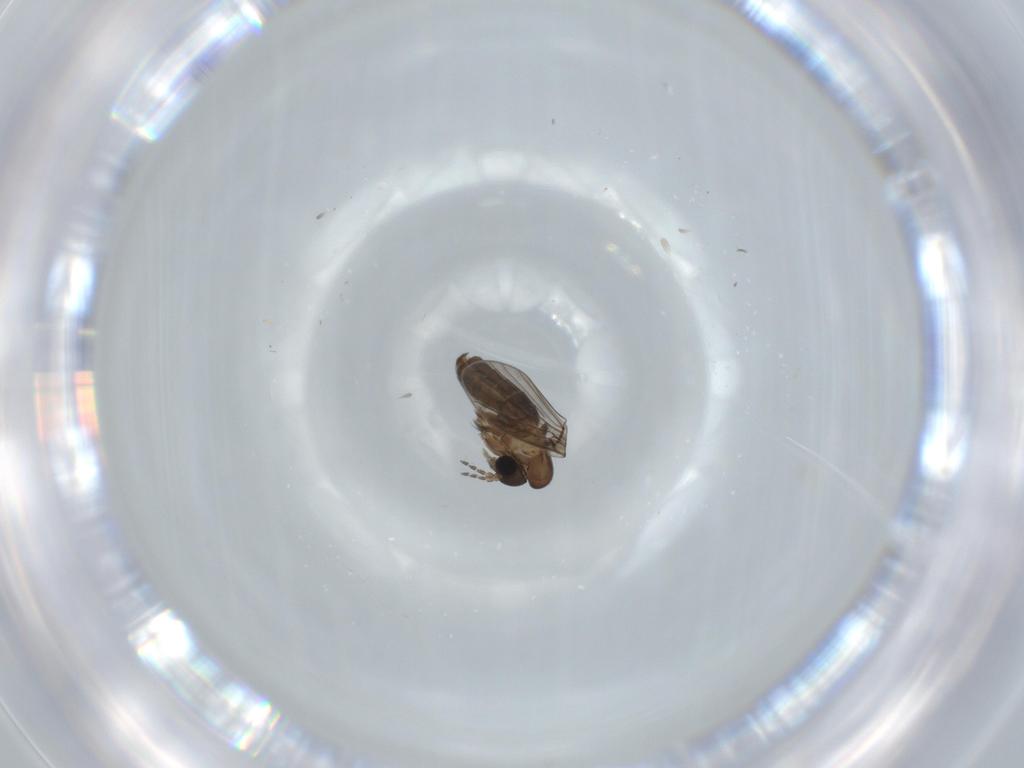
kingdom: Animalia
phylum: Arthropoda
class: Insecta
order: Diptera
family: Psychodidae
